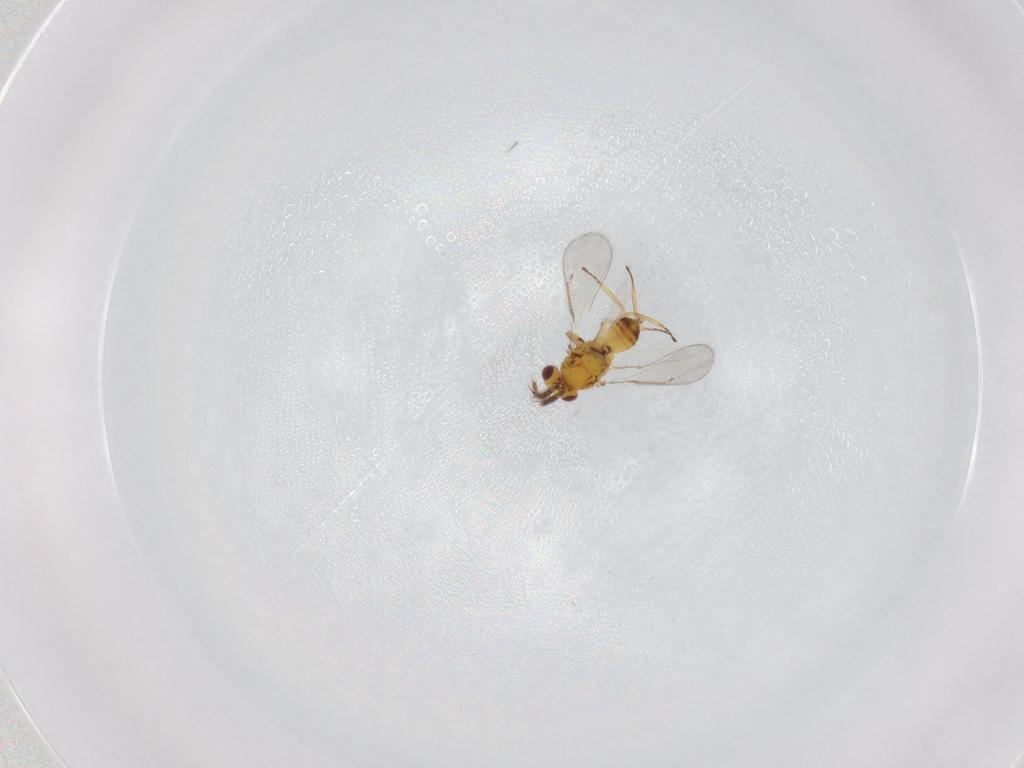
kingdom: Animalia
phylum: Arthropoda
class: Insecta
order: Hymenoptera
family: Eulophidae
